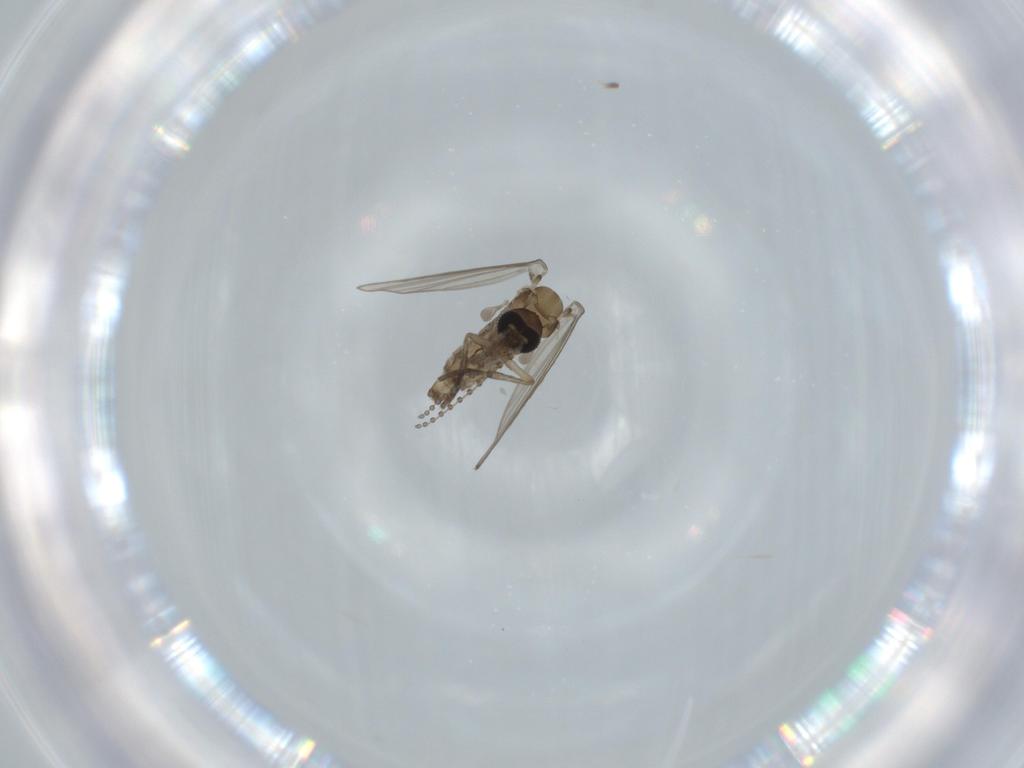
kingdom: Animalia
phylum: Arthropoda
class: Insecta
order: Diptera
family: Psychodidae
